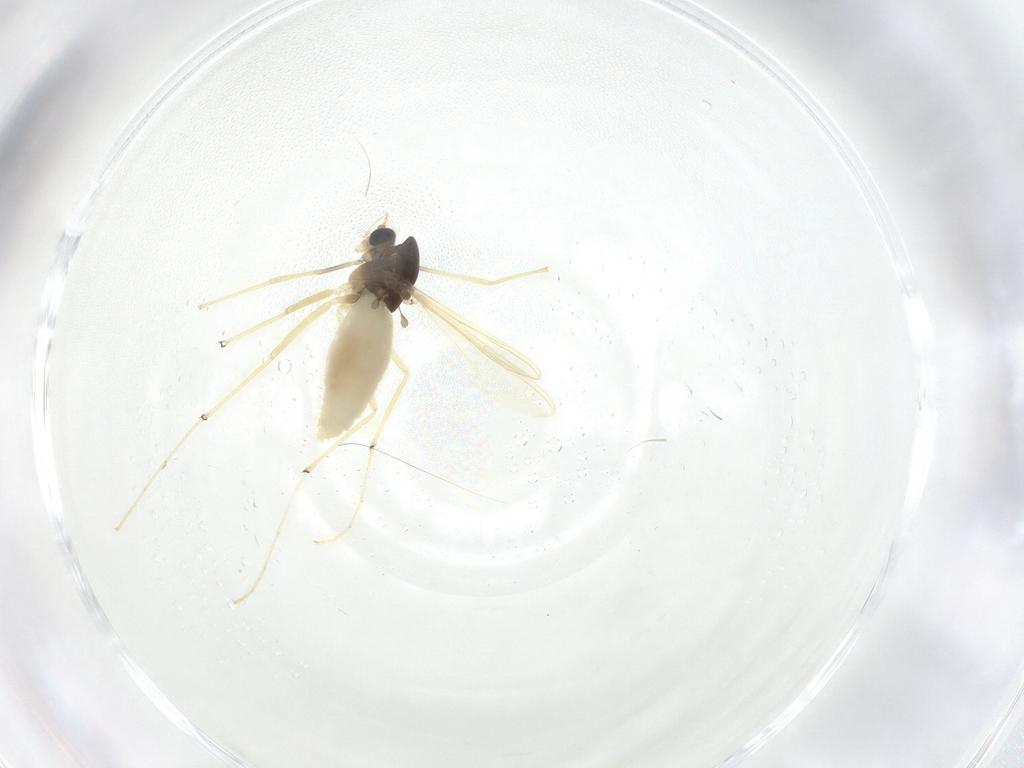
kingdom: Animalia
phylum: Arthropoda
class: Insecta
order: Diptera
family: Chironomidae
